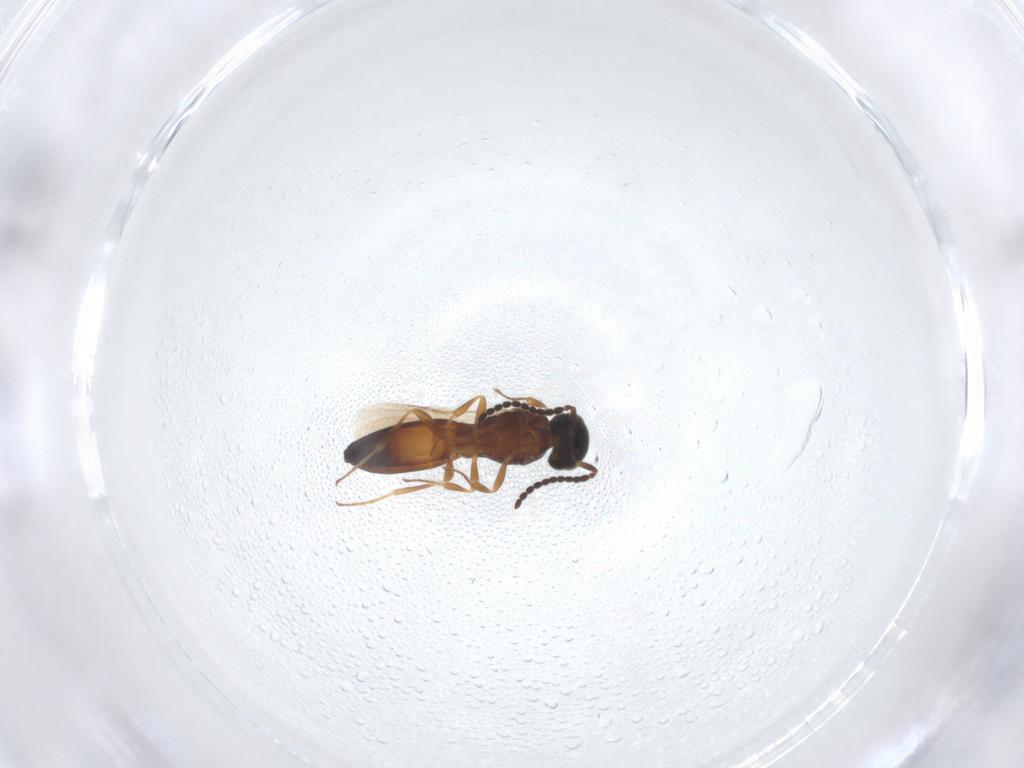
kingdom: Animalia
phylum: Arthropoda
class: Insecta
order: Hymenoptera
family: Scelionidae
